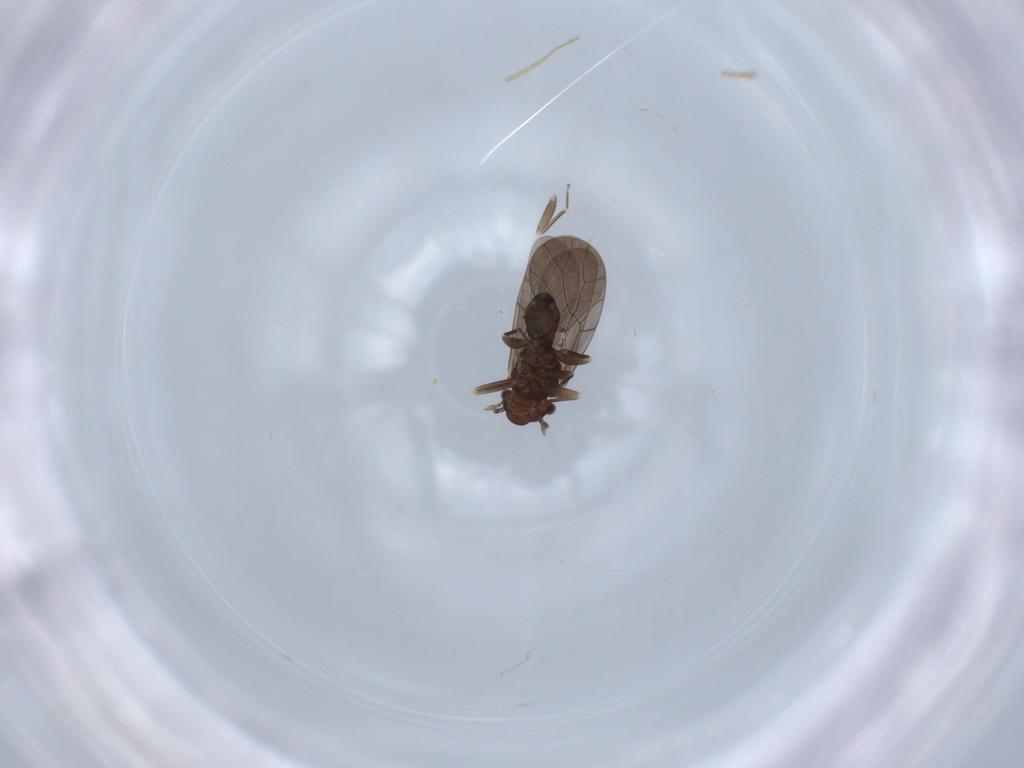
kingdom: Animalia
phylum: Arthropoda
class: Insecta
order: Psocodea
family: Lepidopsocidae
